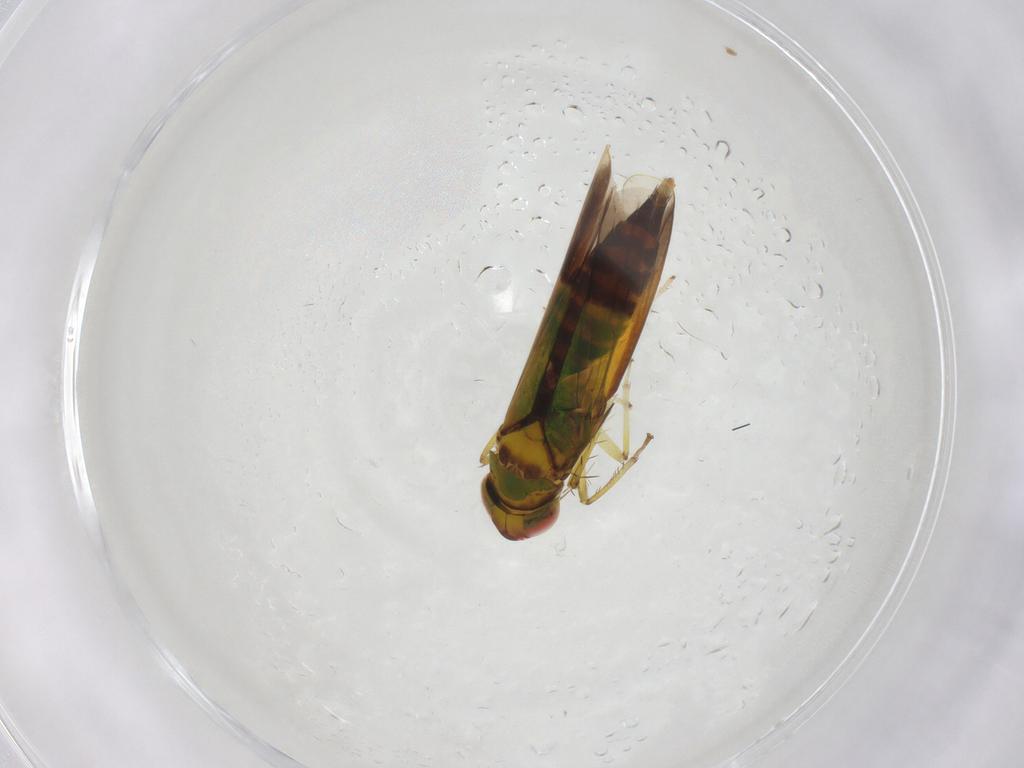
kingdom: Animalia
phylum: Arthropoda
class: Insecta
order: Hemiptera
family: Cicadellidae
